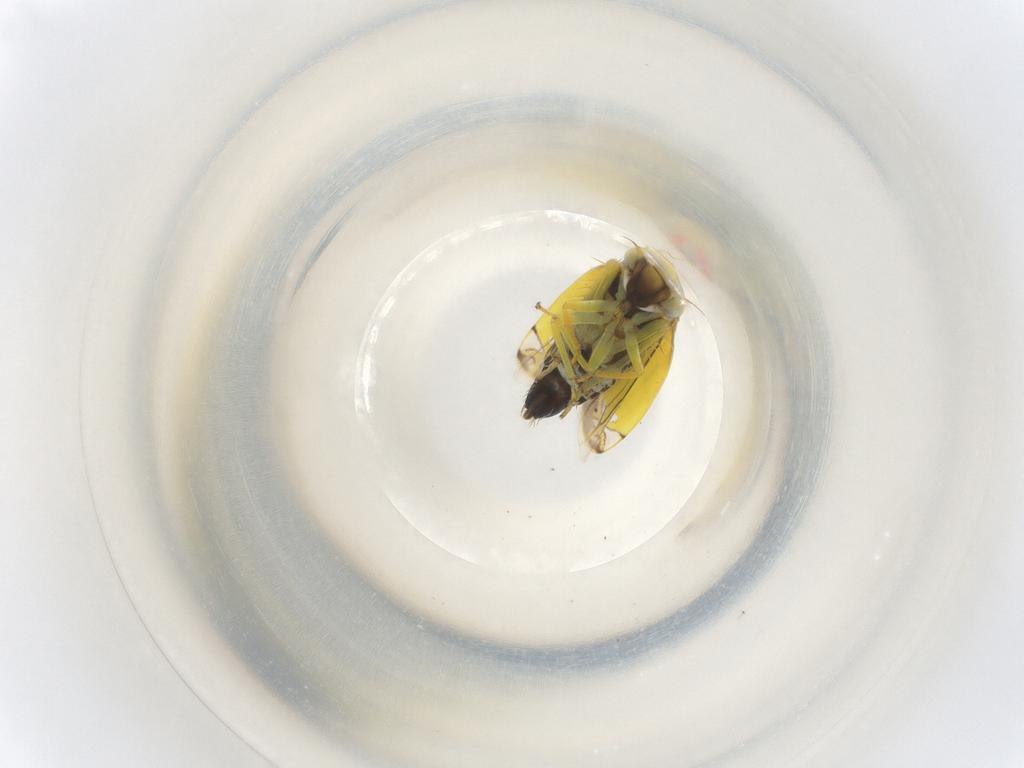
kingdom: Animalia
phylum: Arthropoda
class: Insecta
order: Hemiptera
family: Cicadellidae
